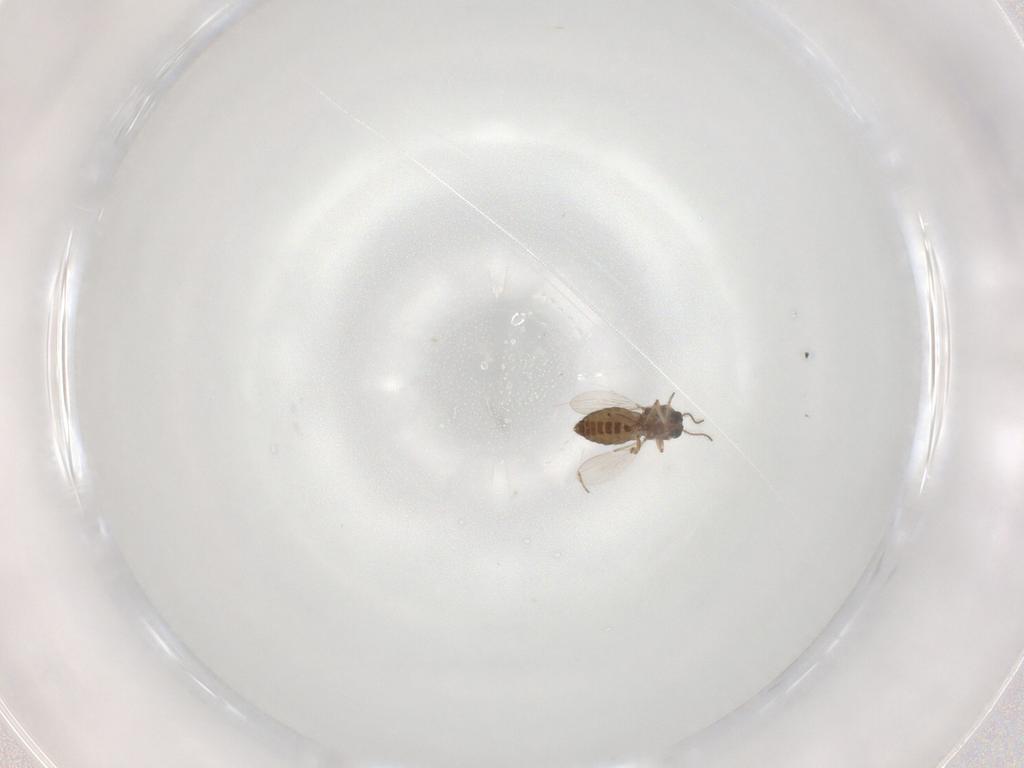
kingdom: Animalia
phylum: Arthropoda
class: Insecta
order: Diptera
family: Ceratopogonidae
